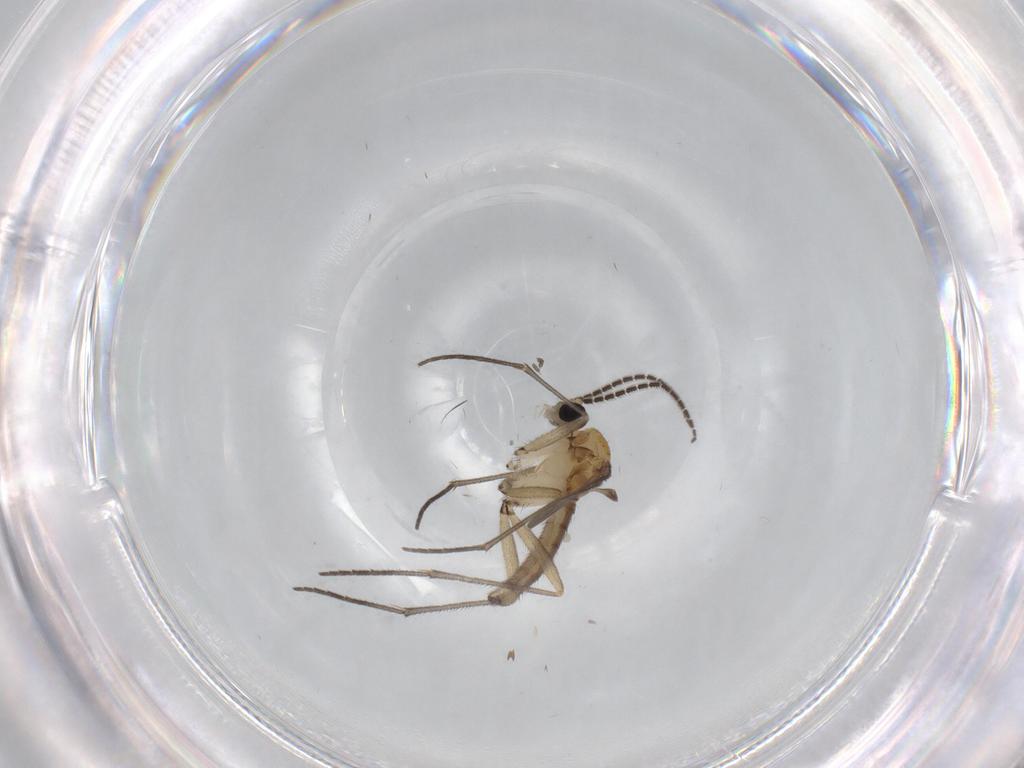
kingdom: Animalia
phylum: Arthropoda
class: Insecta
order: Diptera
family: Sciaridae
